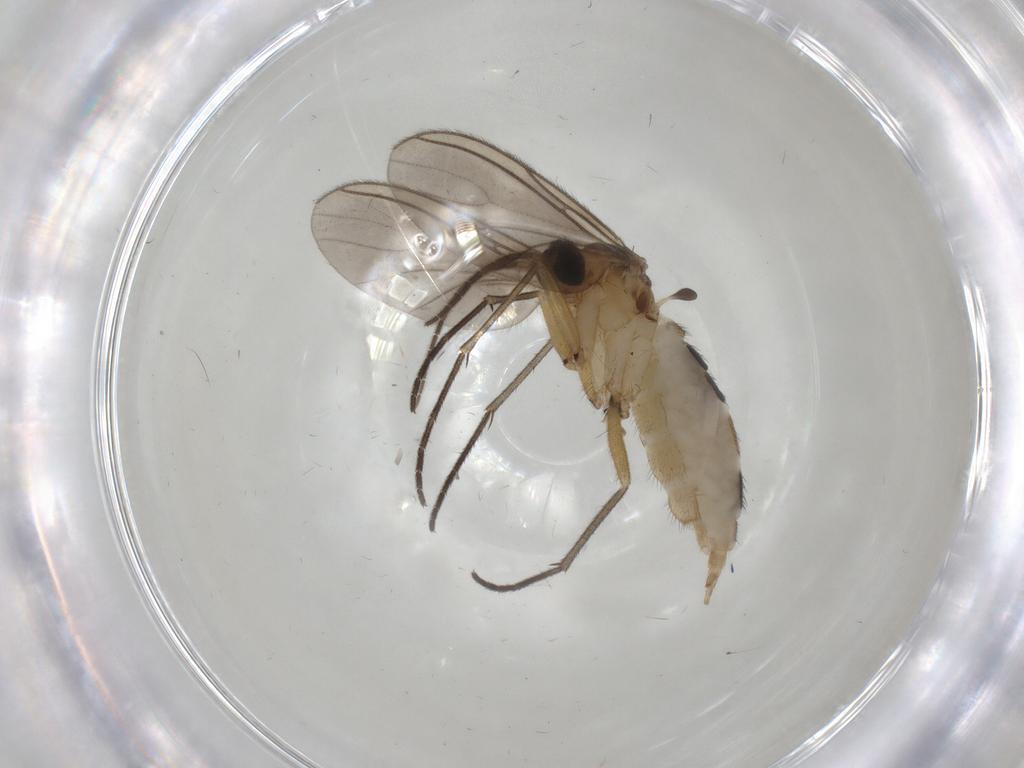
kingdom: Animalia
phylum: Arthropoda
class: Insecta
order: Diptera
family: Sciaridae
